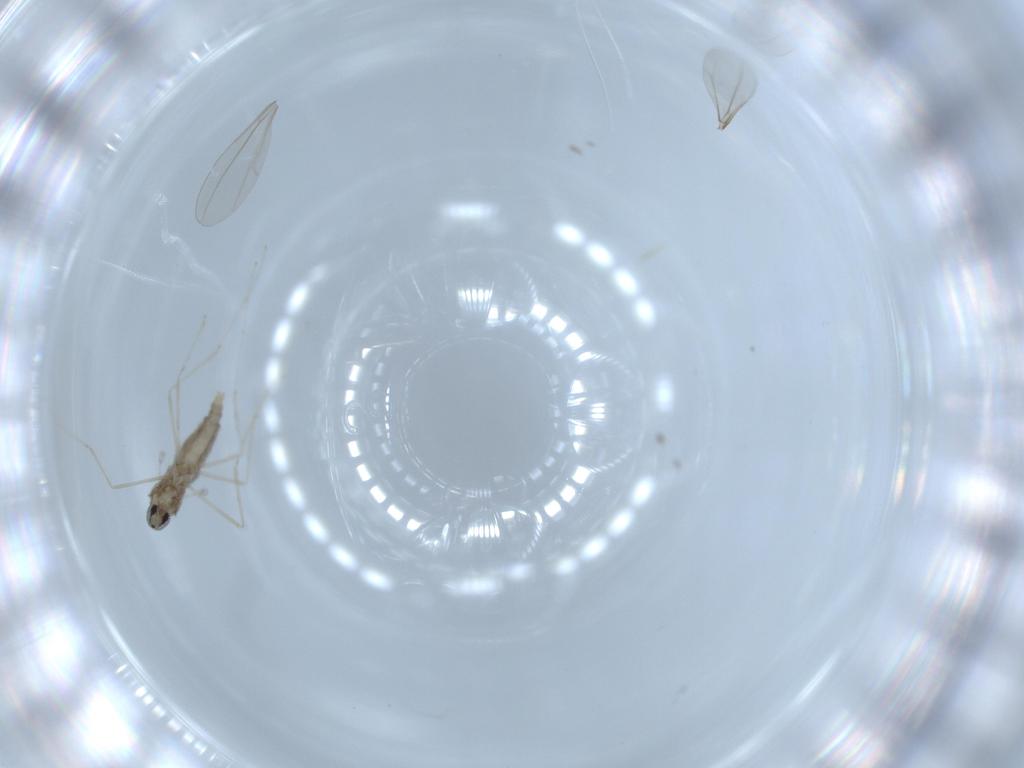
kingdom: Animalia
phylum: Arthropoda
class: Insecta
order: Diptera
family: Cecidomyiidae
